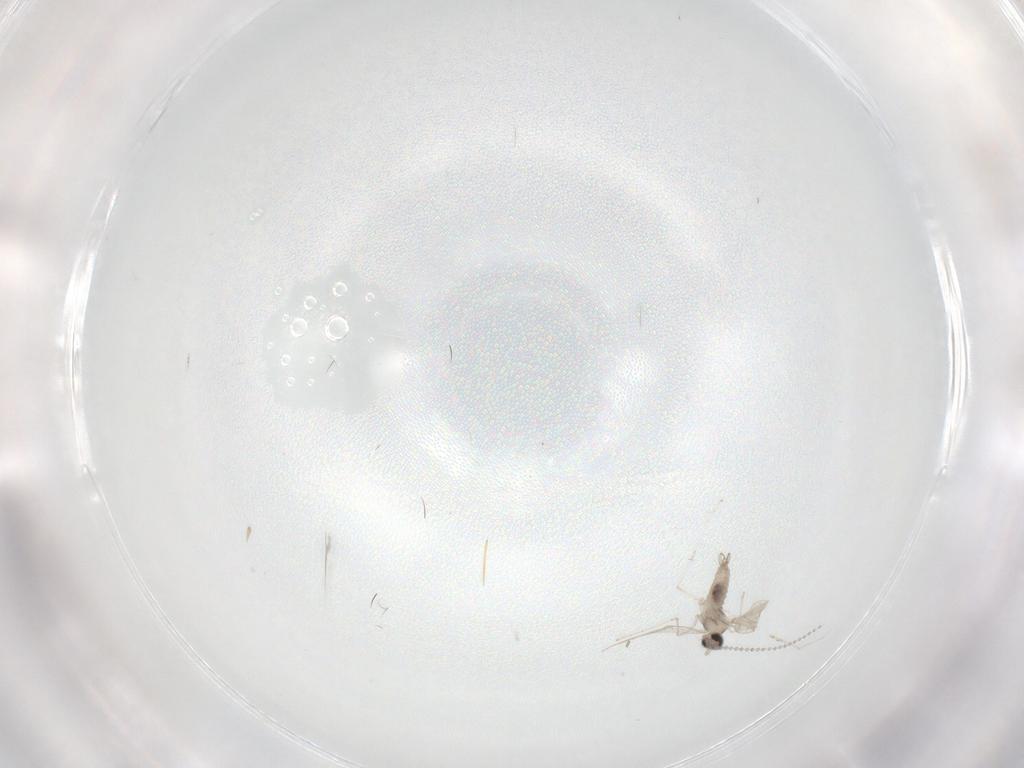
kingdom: Animalia
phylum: Arthropoda
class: Insecta
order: Diptera
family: Cecidomyiidae
